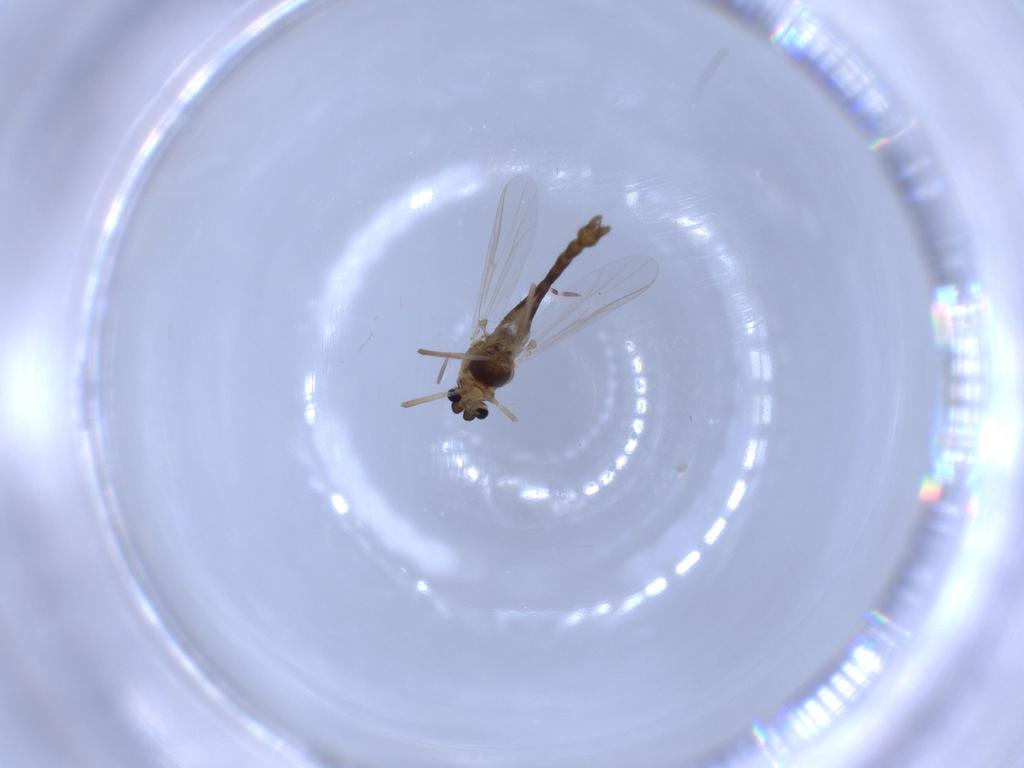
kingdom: Animalia
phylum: Arthropoda
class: Insecta
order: Diptera
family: Chironomidae
